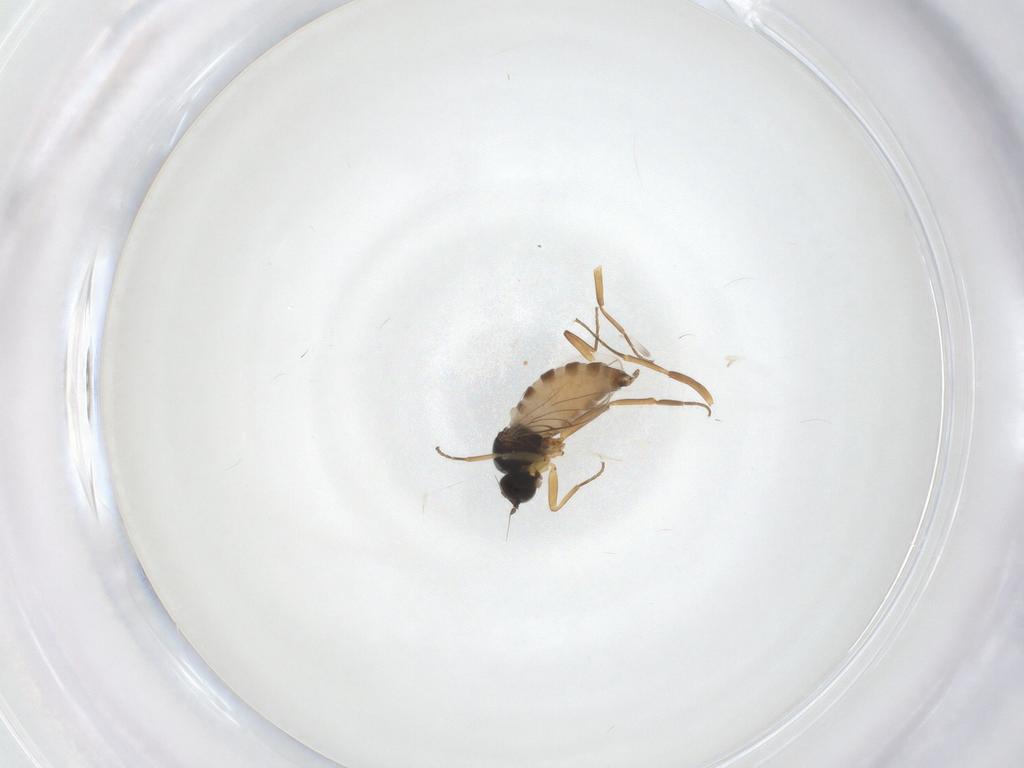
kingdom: Animalia
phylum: Arthropoda
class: Insecta
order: Diptera
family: Hybotidae
